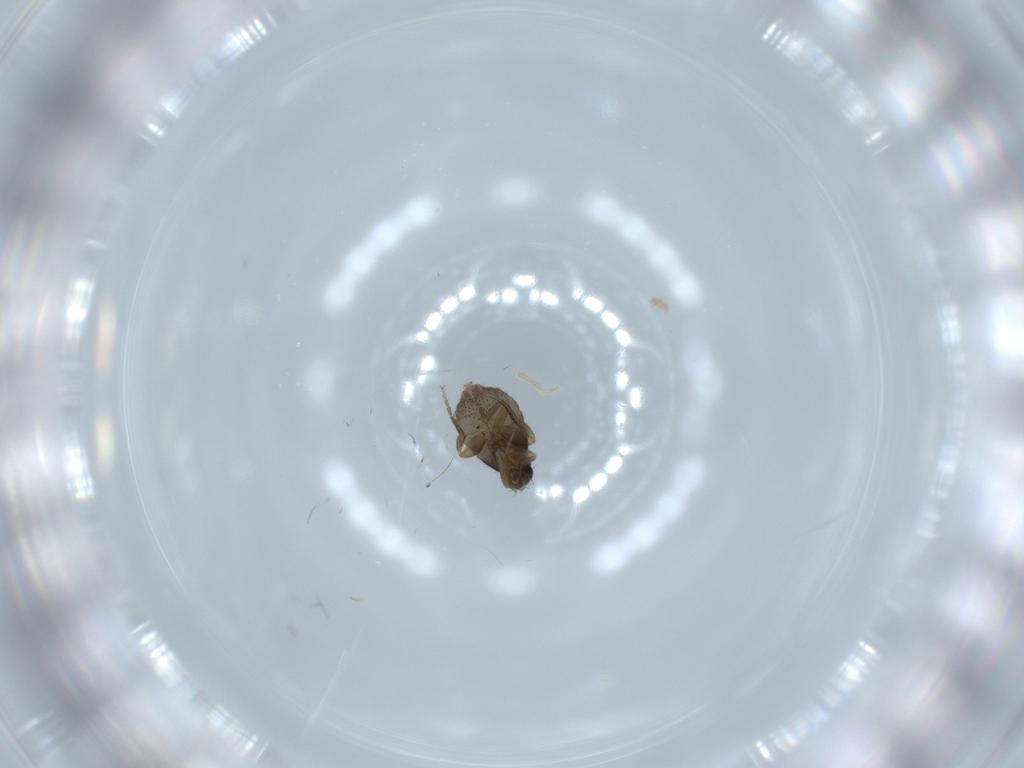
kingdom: Animalia
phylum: Arthropoda
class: Insecta
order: Diptera
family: Phoridae
